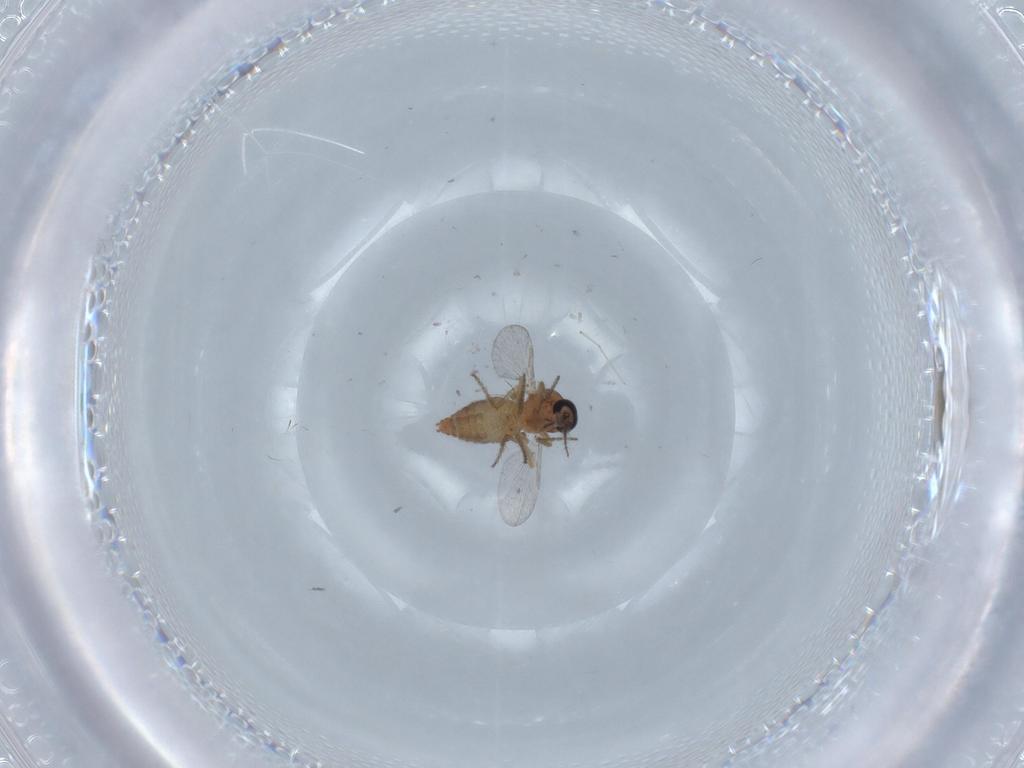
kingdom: Animalia
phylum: Arthropoda
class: Insecta
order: Diptera
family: Ceratopogonidae
